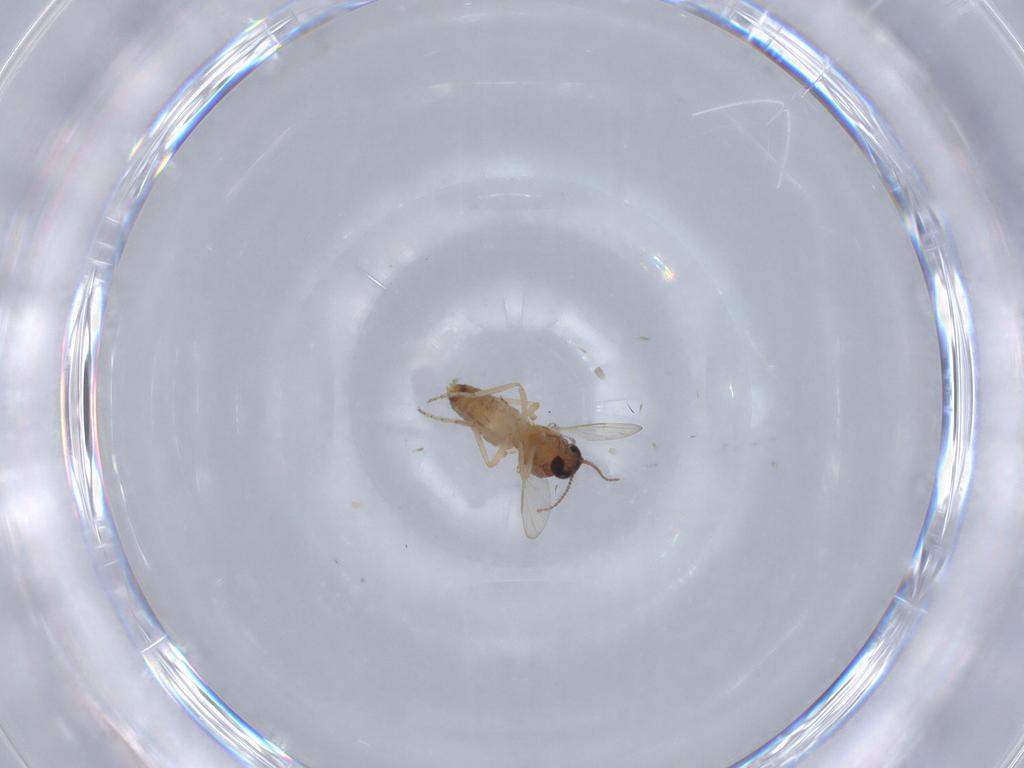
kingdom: Animalia
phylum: Arthropoda
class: Insecta
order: Diptera
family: Ceratopogonidae
